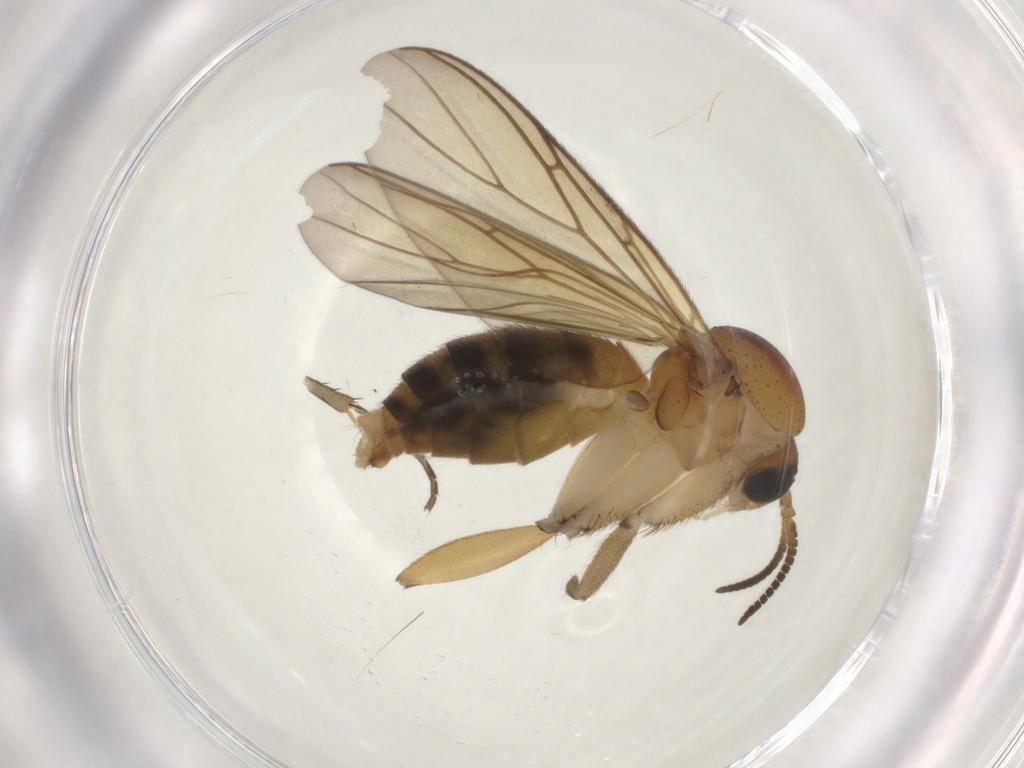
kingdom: Animalia
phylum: Arthropoda
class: Insecta
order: Diptera
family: Mycetophilidae
